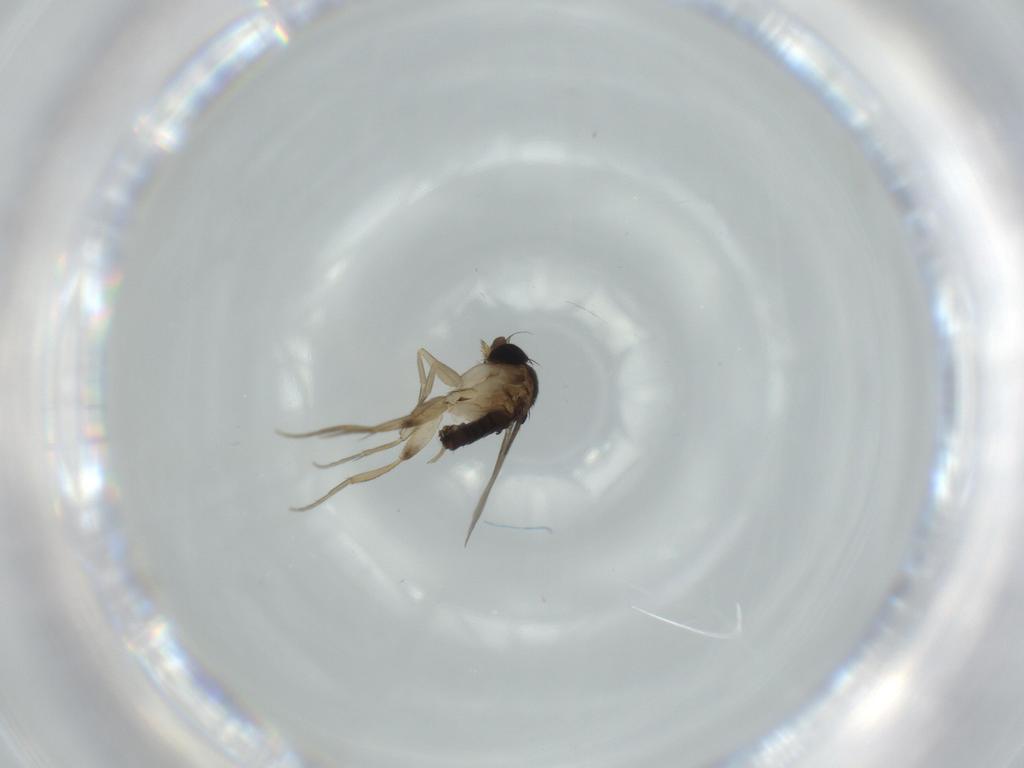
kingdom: Animalia
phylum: Arthropoda
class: Insecta
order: Diptera
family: Phoridae
